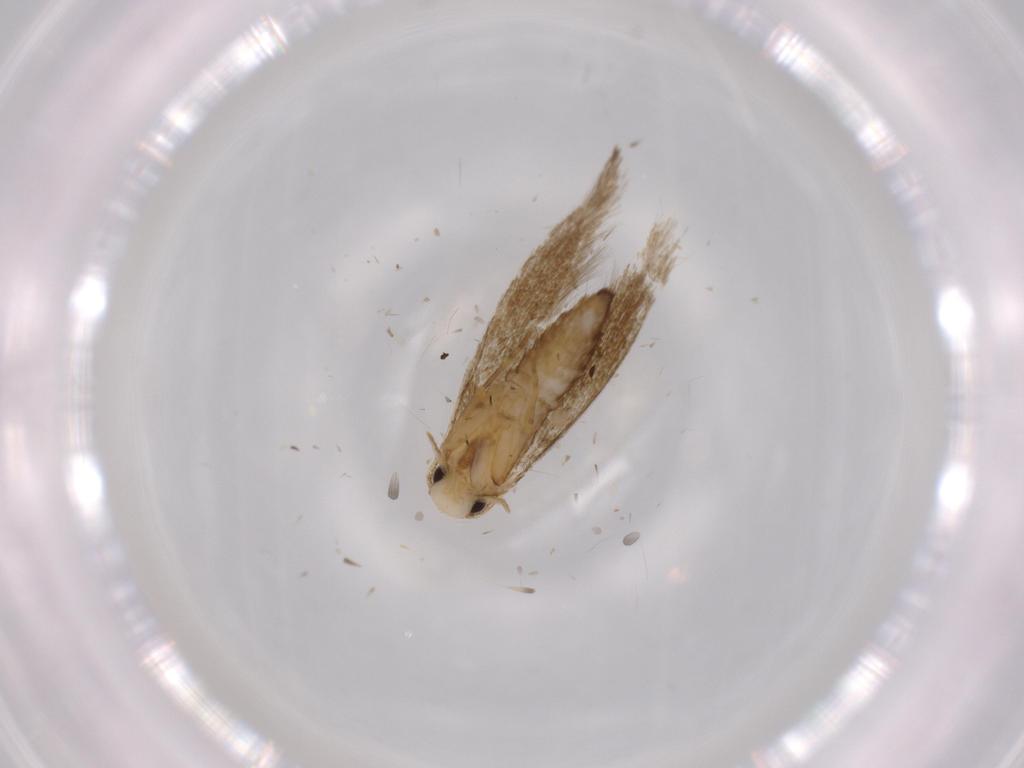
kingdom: Animalia
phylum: Arthropoda
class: Insecta
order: Lepidoptera
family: Tineidae
